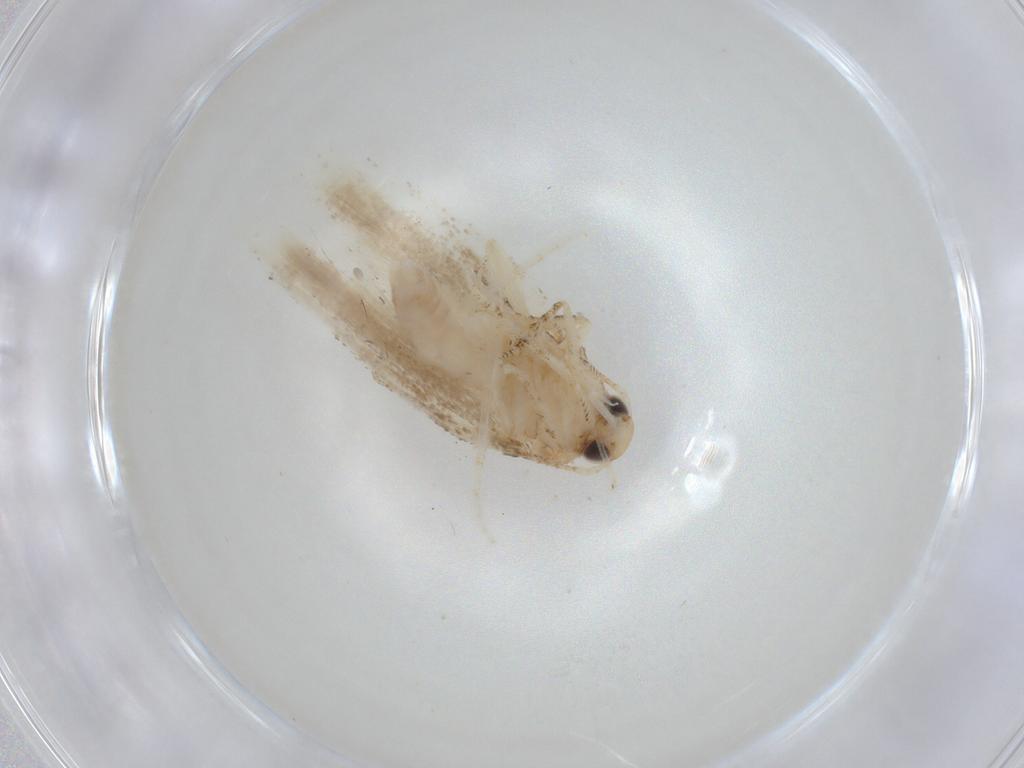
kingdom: Animalia
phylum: Arthropoda
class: Insecta
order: Lepidoptera
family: Gelechiidae
